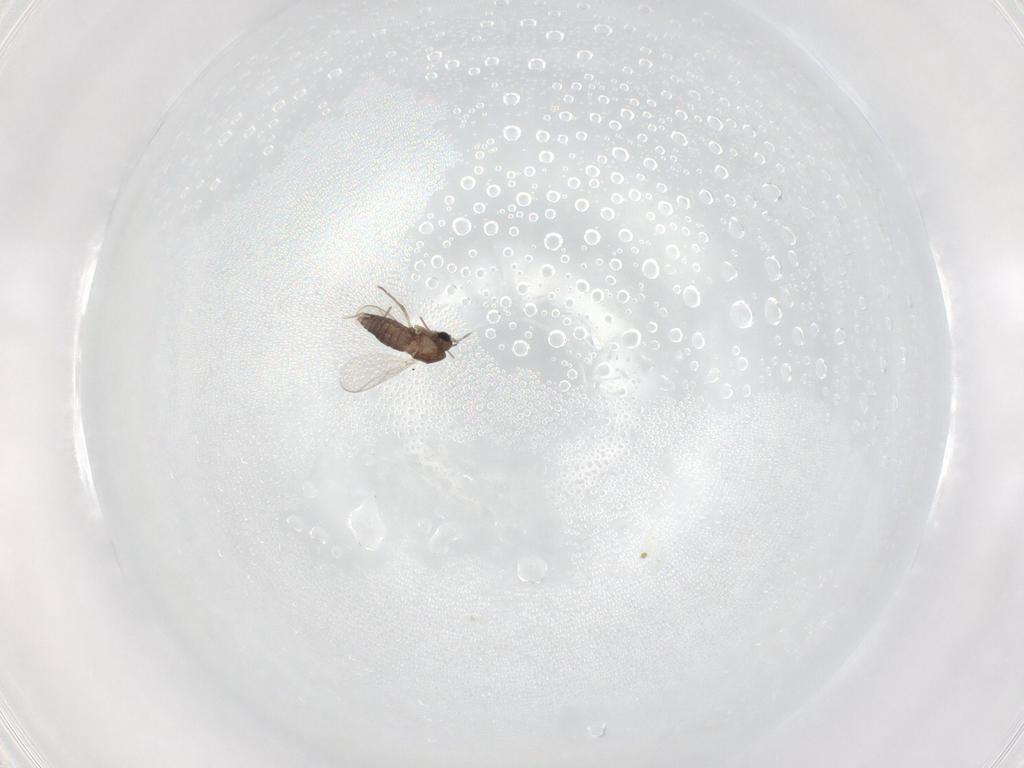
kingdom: Animalia
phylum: Arthropoda
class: Insecta
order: Diptera
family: Chironomidae
